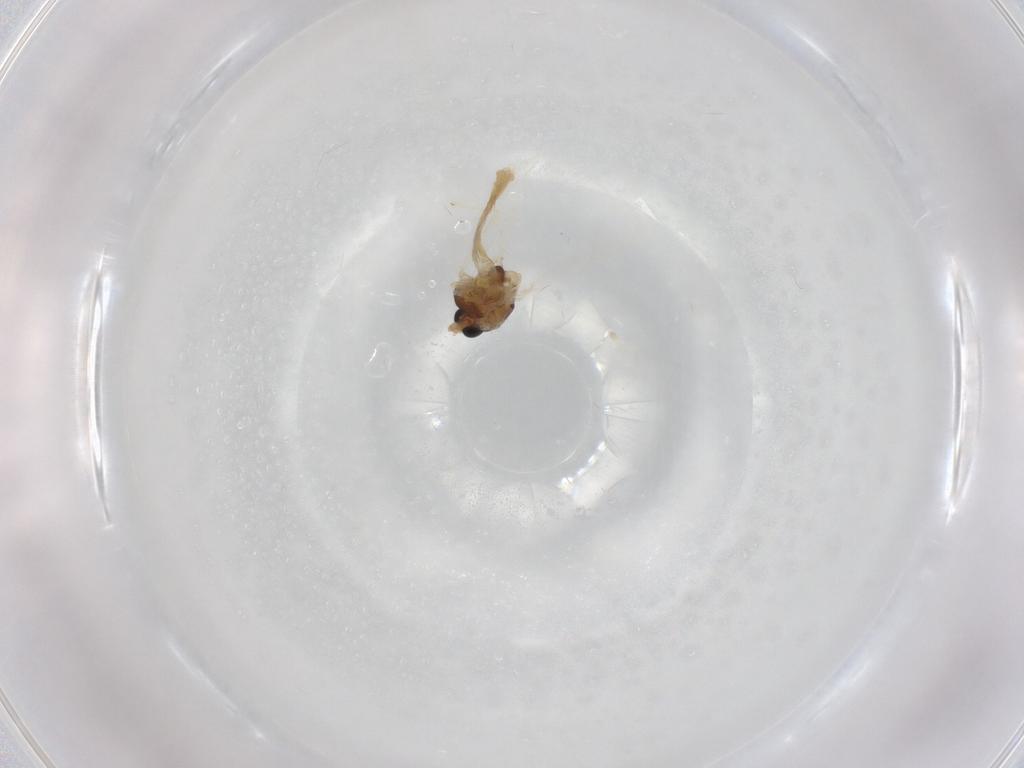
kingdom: Animalia
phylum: Arthropoda
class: Insecta
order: Diptera
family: Chironomidae
